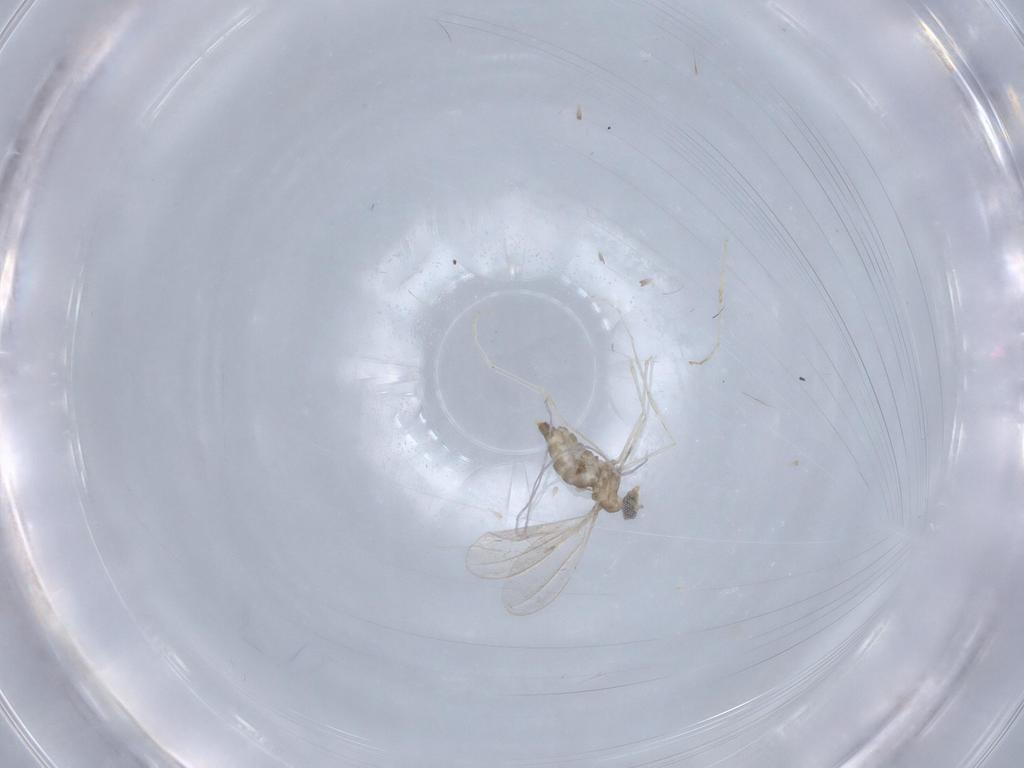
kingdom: Animalia
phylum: Arthropoda
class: Insecta
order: Diptera
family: Cecidomyiidae
